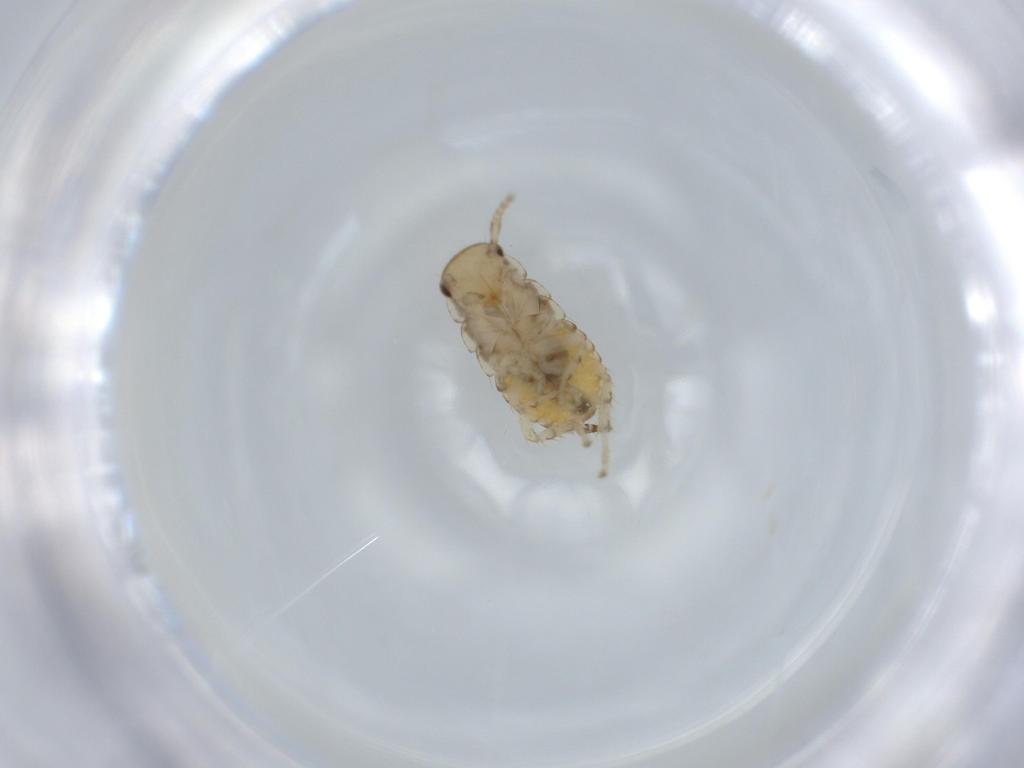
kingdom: Animalia
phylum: Arthropoda
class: Insecta
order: Blattodea
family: Ectobiidae
